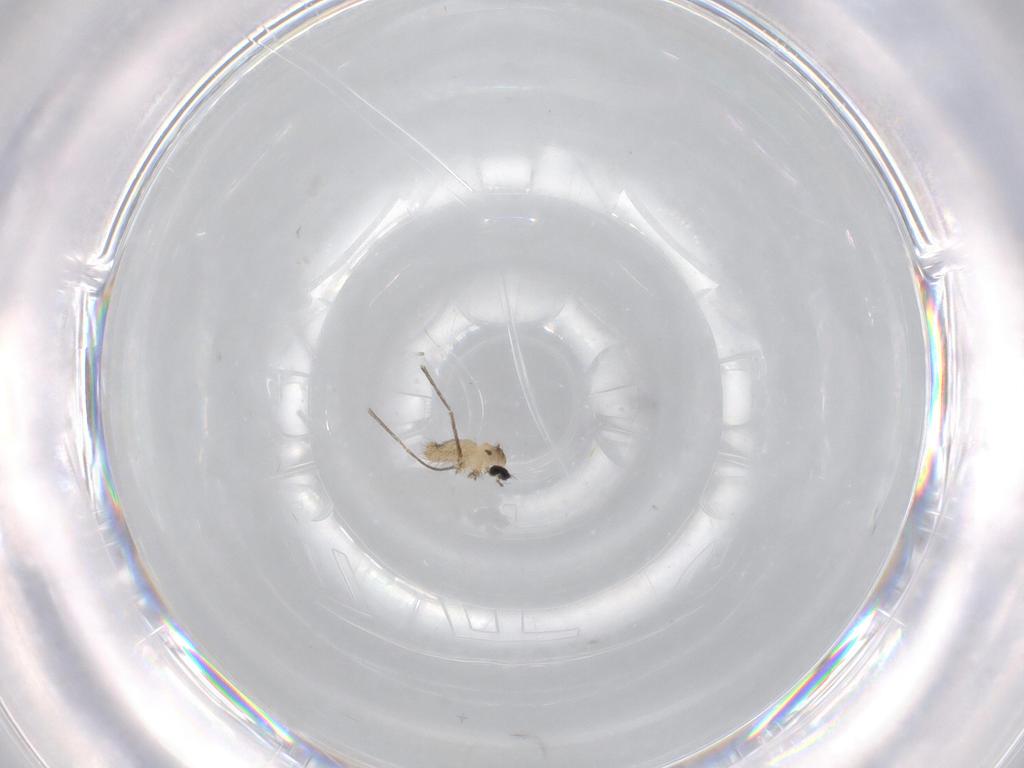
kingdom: Animalia
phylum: Arthropoda
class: Insecta
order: Diptera
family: Cecidomyiidae
